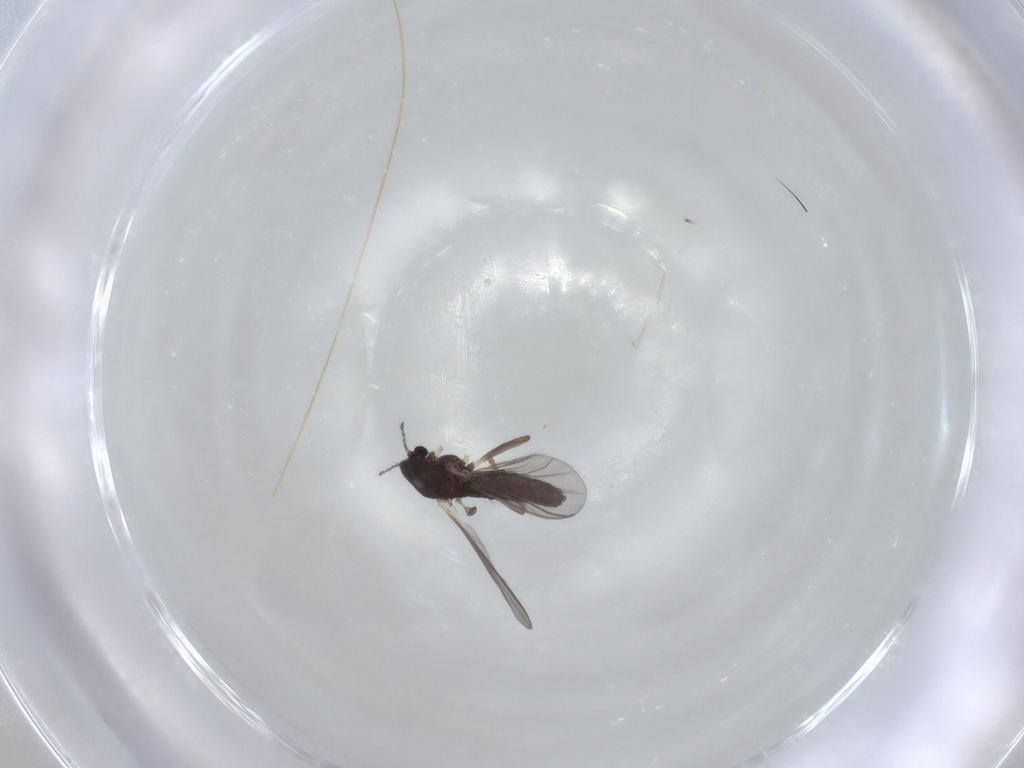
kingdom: Animalia
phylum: Arthropoda
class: Insecta
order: Diptera
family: Chironomidae
